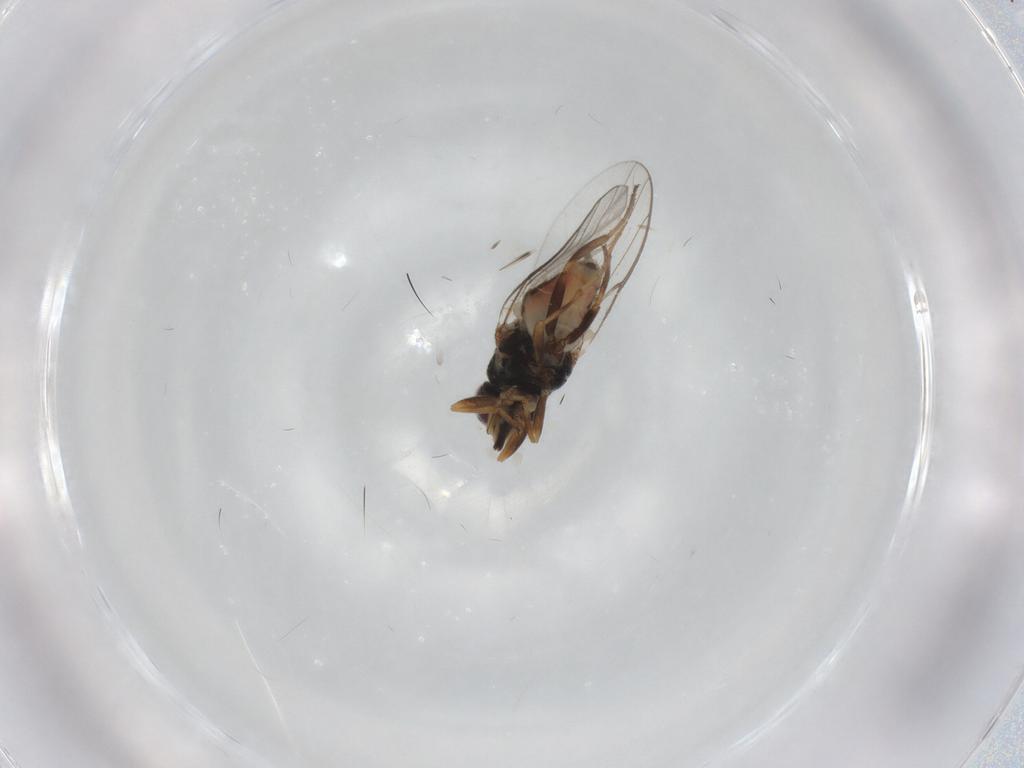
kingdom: Animalia
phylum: Arthropoda
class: Insecta
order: Diptera
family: Chloropidae
